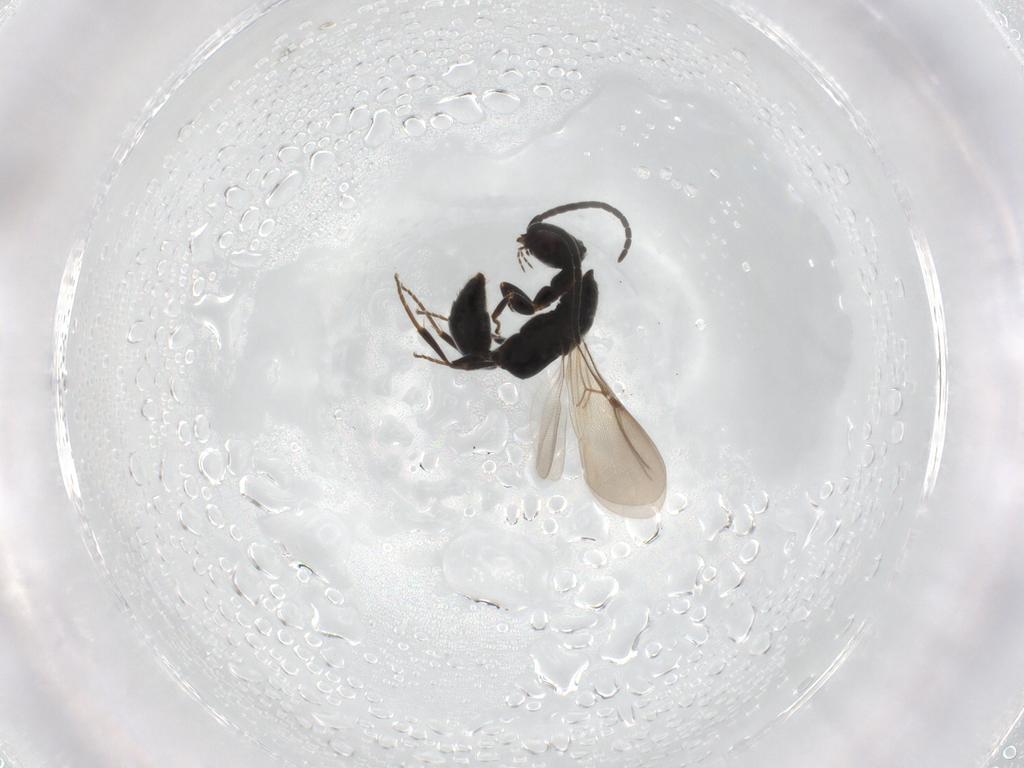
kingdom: Animalia
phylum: Arthropoda
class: Insecta
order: Hymenoptera
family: Bethylidae
